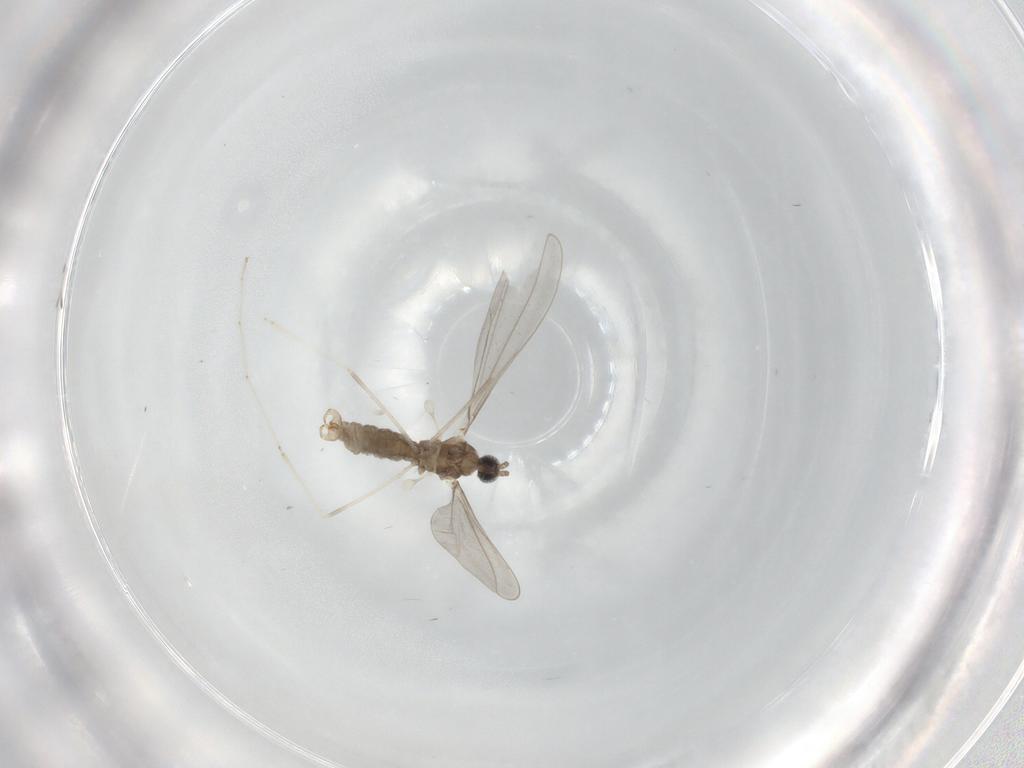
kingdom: Animalia
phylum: Arthropoda
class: Insecta
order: Diptera
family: Cecidomyiidae
